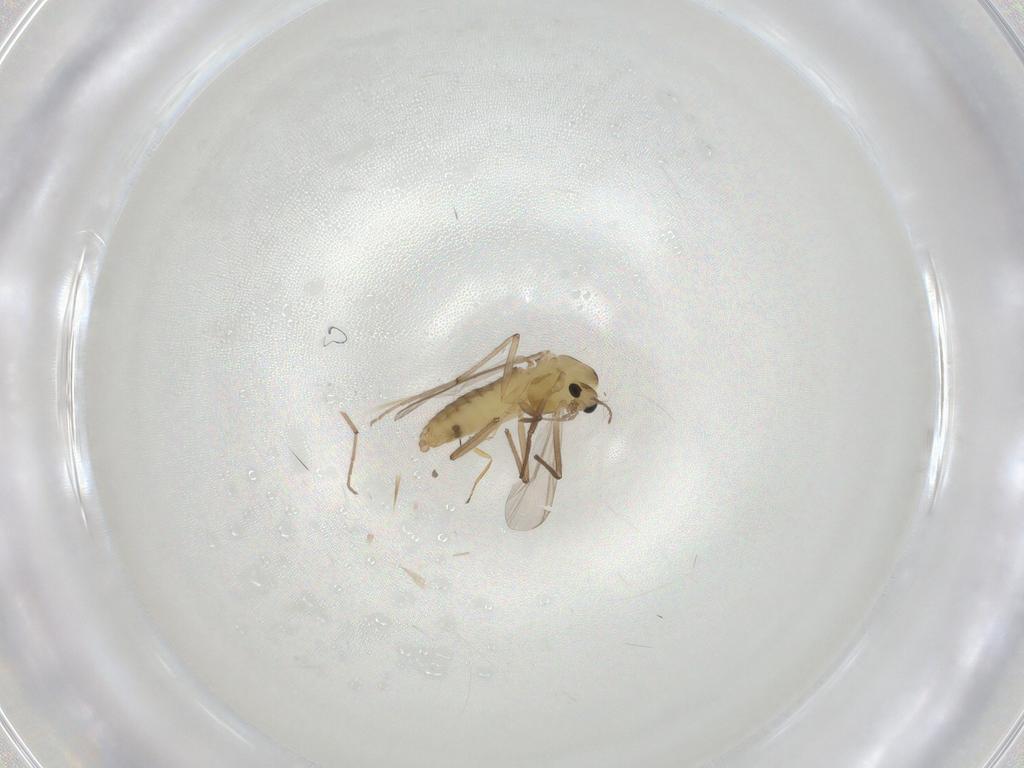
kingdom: Animalia
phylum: Arthropoda
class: Insecta
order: Diptera
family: Chironomidae
